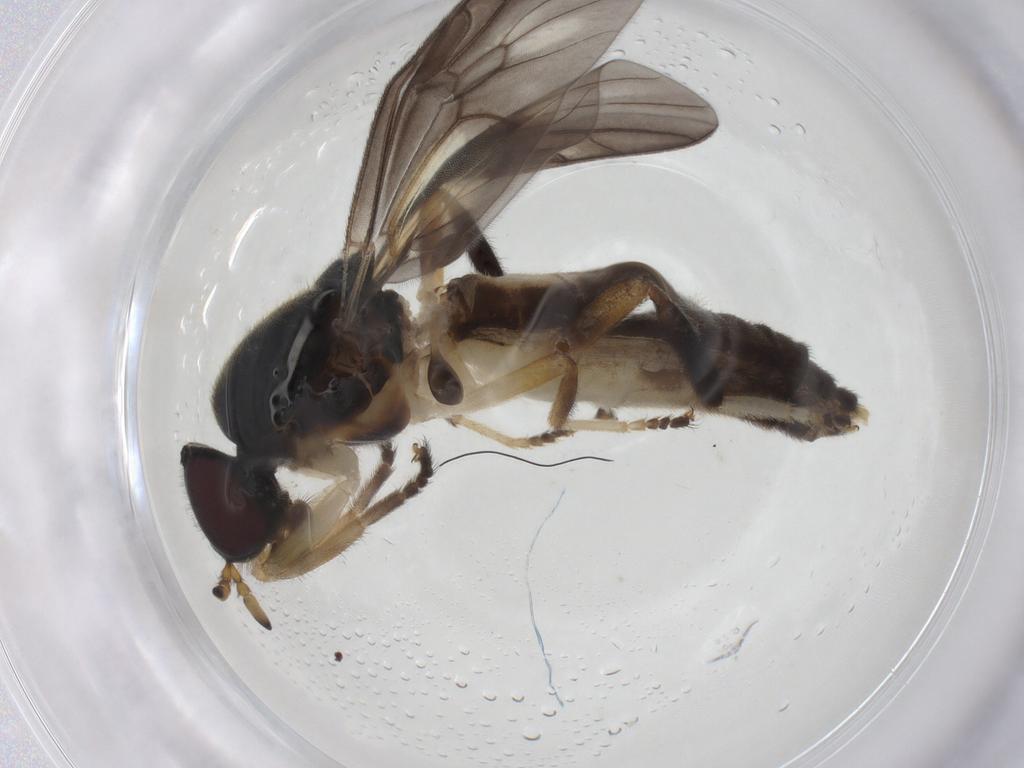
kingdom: Animalia
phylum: Arthropoda
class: Insecta
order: Diptera
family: Stratiomyidae
